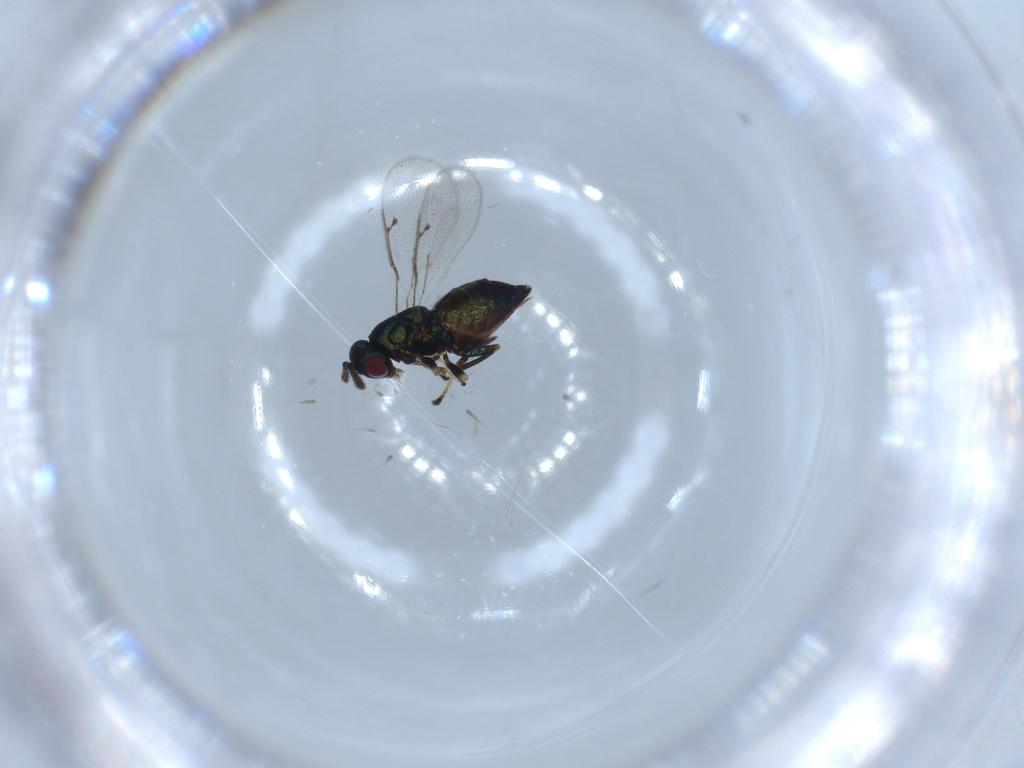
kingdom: Animalia
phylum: Arthropoda
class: Insecta
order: Hymenoptera
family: Pteromalidae
